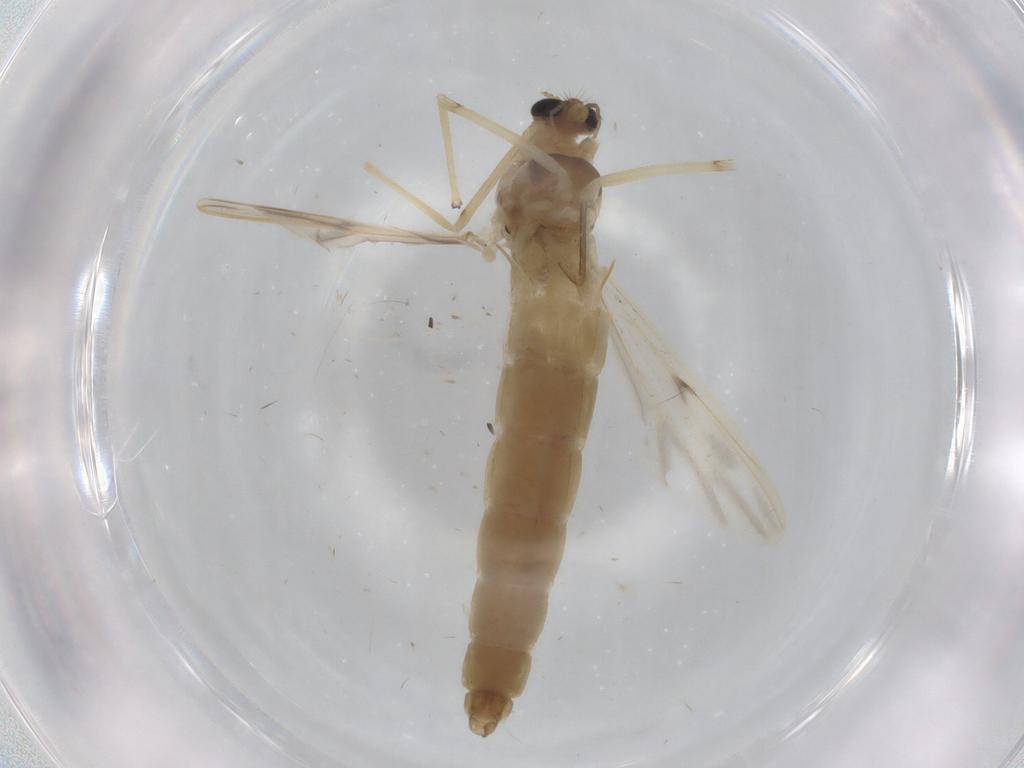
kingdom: Animalia
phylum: Arthropoda
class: Insecta
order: Diptera
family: Chironomidae
